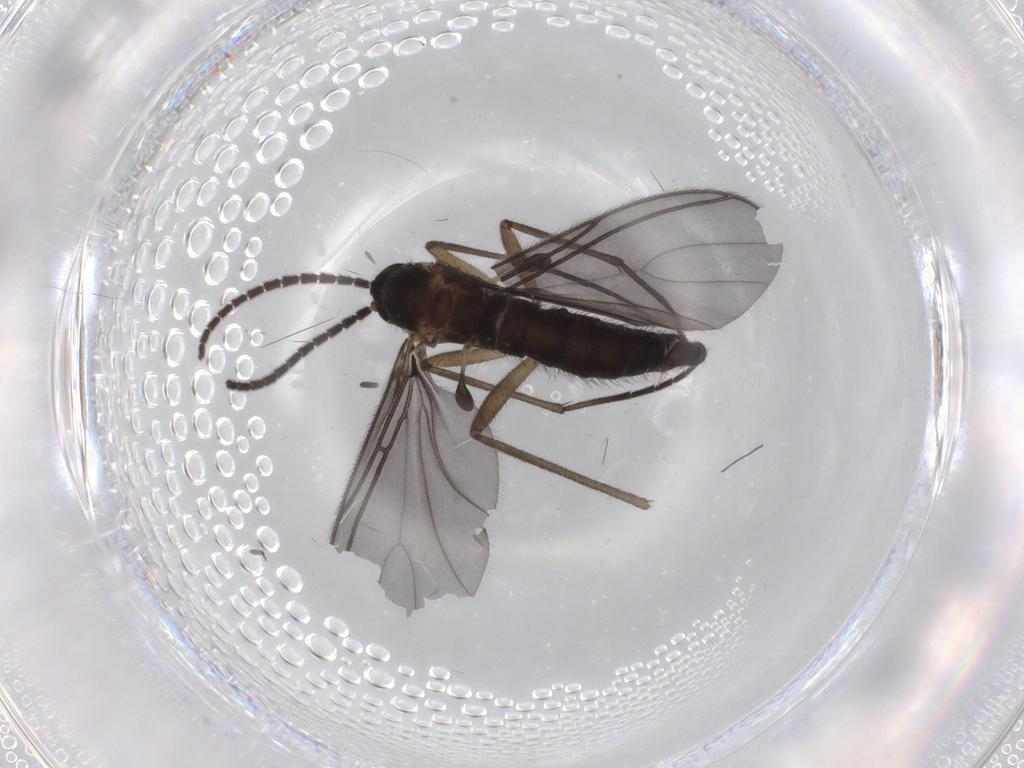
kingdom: Animalia
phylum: Arthropoda
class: Insecta
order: Diptera
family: Sciaridae
